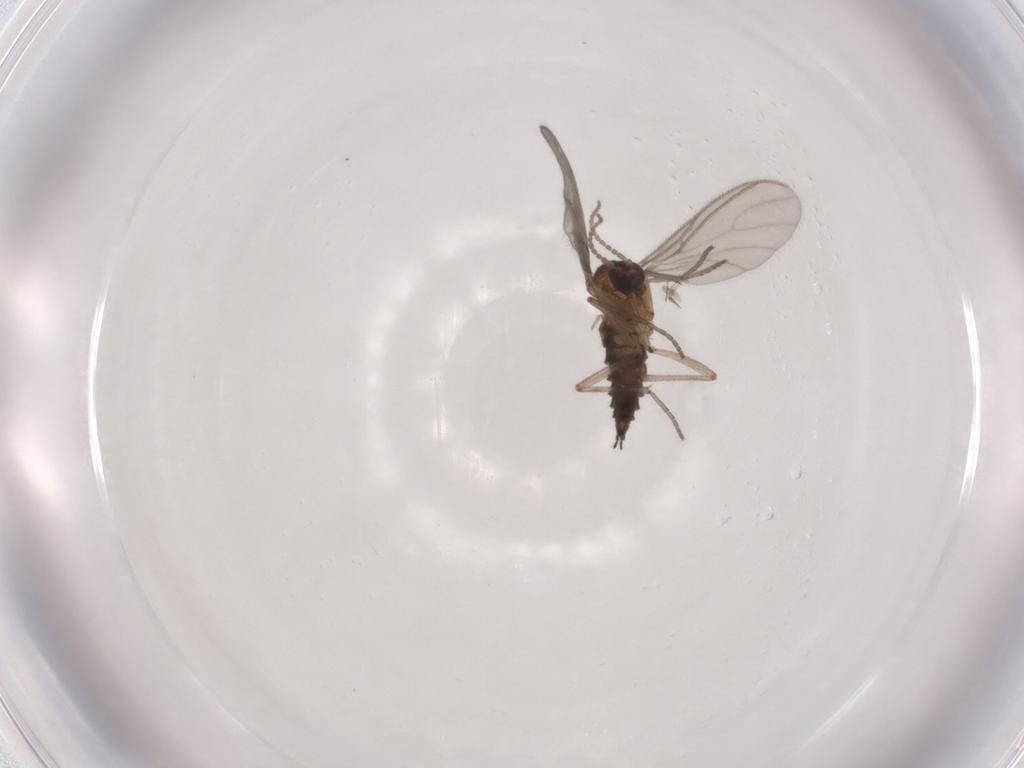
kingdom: Animalia
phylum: Arthropoda
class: Insecta
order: Diptera
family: Sciaridae
